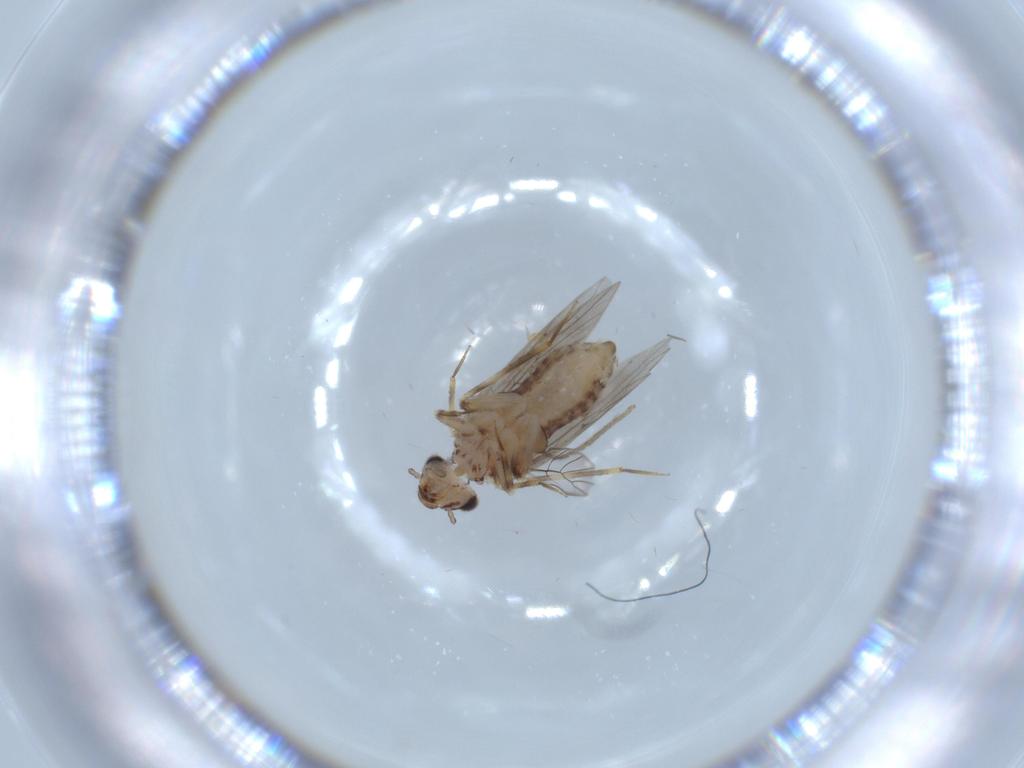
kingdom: Animalia
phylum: Arthropoda
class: Insecta
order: Psocodea
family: Lepidopsocidae
